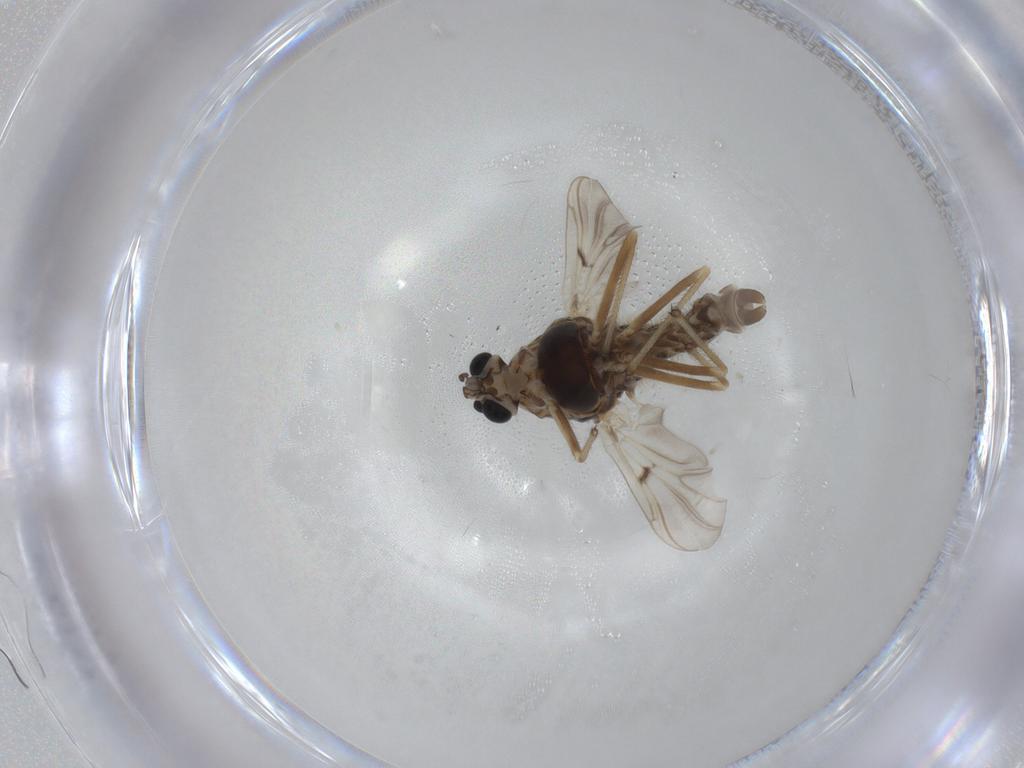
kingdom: Animalia
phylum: Arthropoda
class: Insecta
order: Diptera
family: Chironomidae
